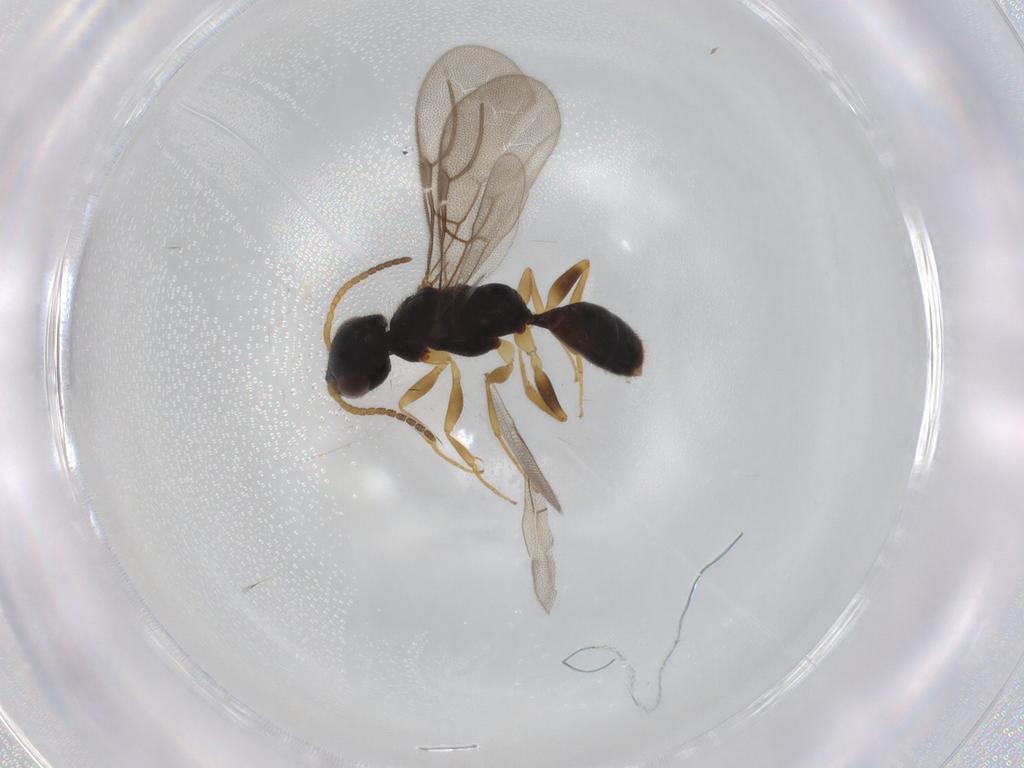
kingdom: Animalia
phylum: Arthropoda
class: Insecta
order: Hymenoptera
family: Bethylidae
